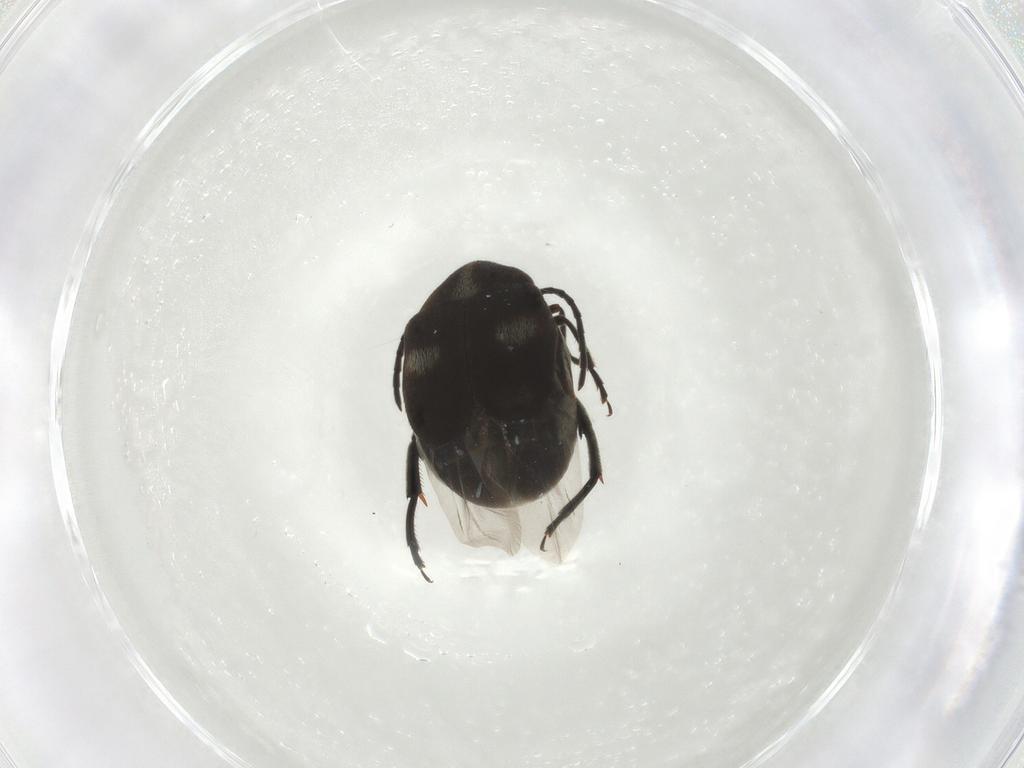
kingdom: Animalia
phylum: Arthropoda
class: Insecta
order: Coleoptera
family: Chrysomelidae
